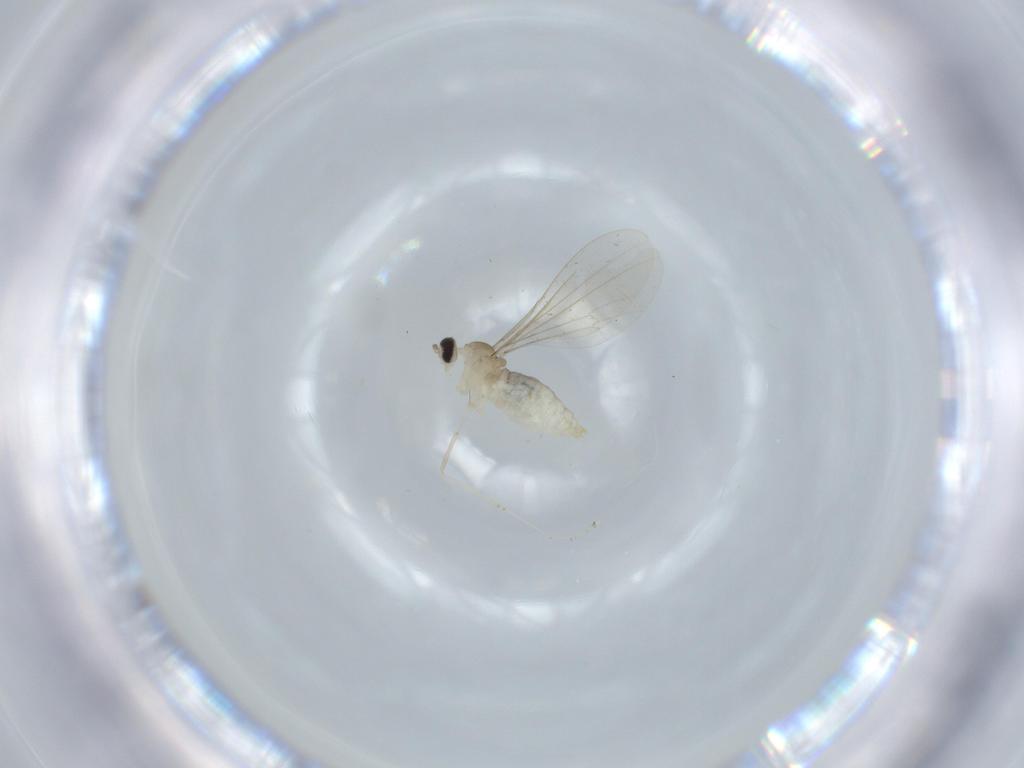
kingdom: Animalia
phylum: Arthropoda
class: Insecta
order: Diptera
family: Cecidomyiidae
